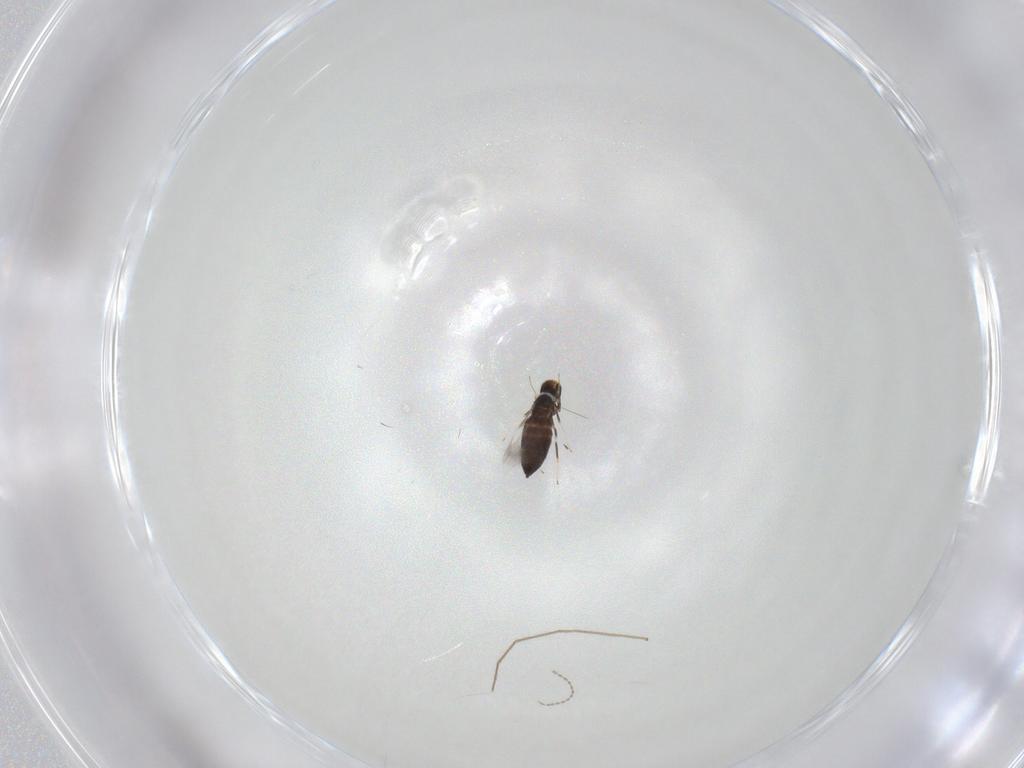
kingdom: Animalia
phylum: Arthropoda
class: Insecta
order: Hymenoptera
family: Signiphoridae
